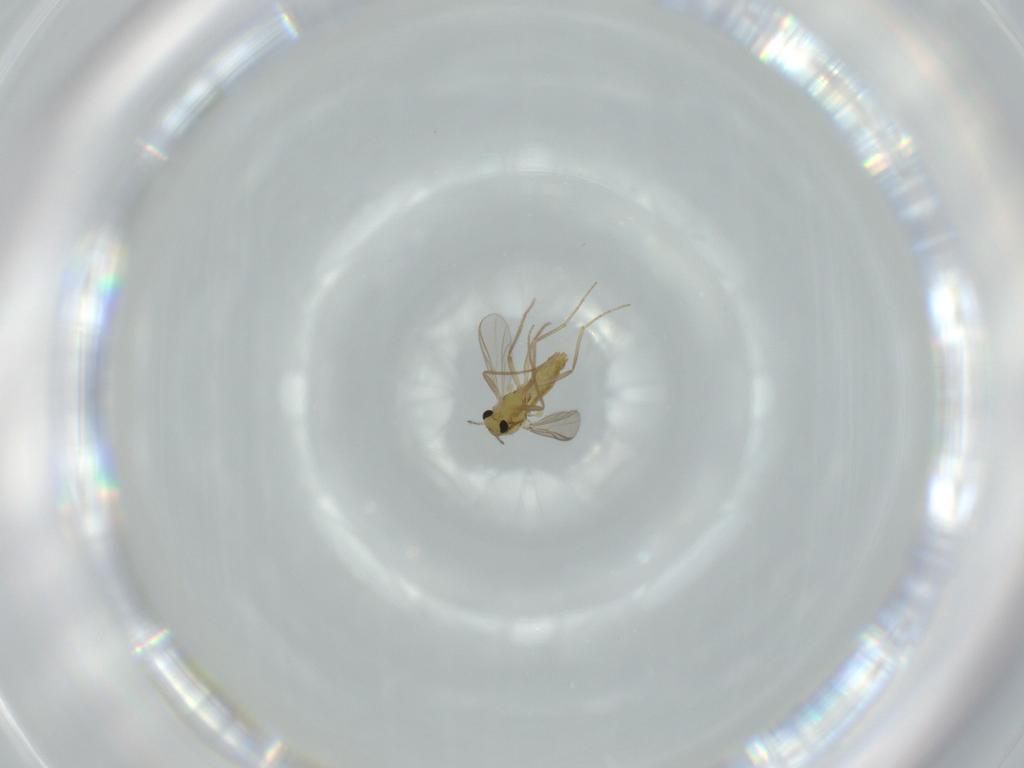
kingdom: Animalia
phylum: Arthropoda
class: Insecta
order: Diptera
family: Chironomidae
